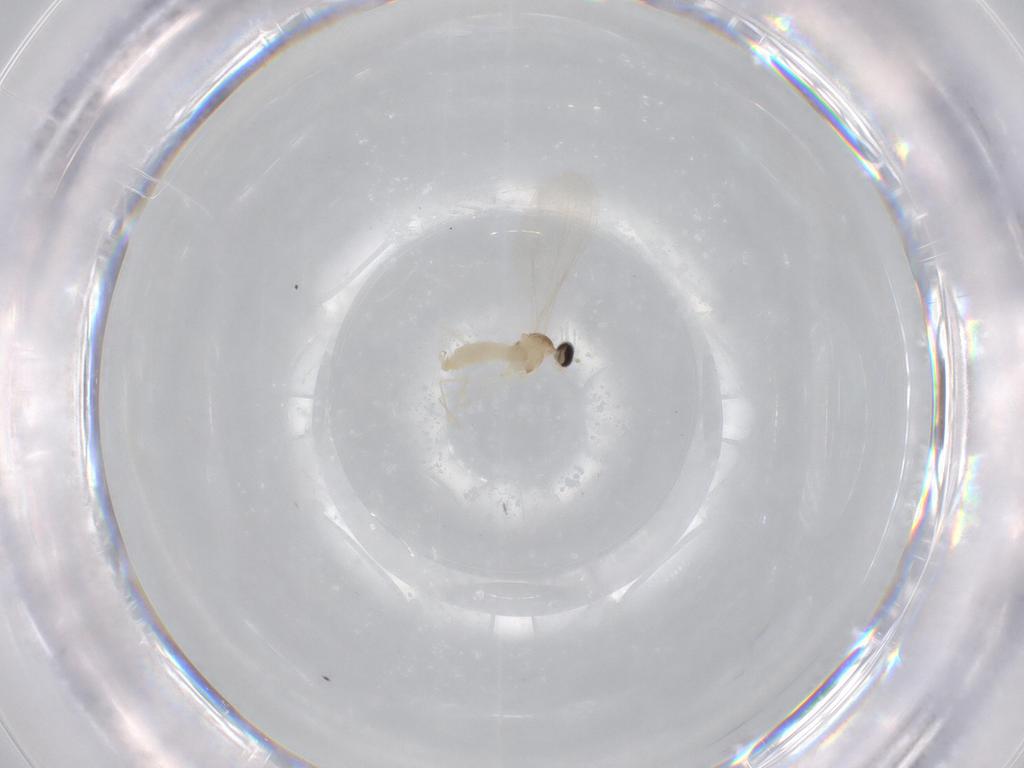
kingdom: Animalia
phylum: Arthropoda
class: Insecta
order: Diptera
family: Cecidomyiidae
